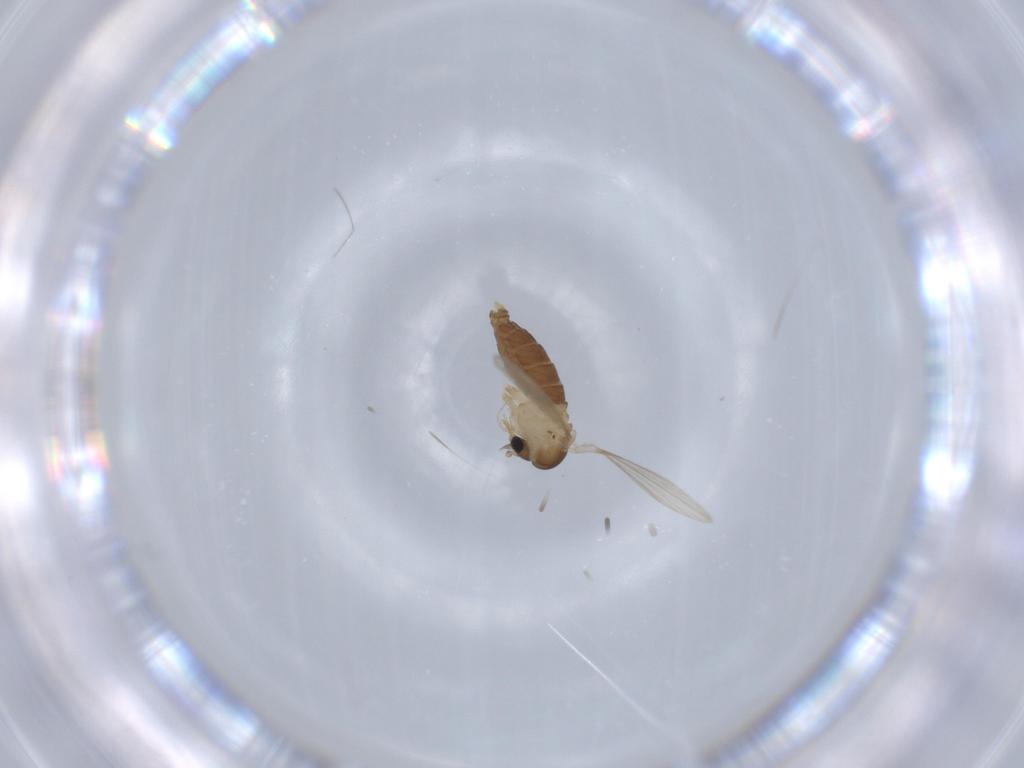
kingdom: Animalia
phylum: Arthropoda
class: Insecta
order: Diptera
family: Psychodidae
